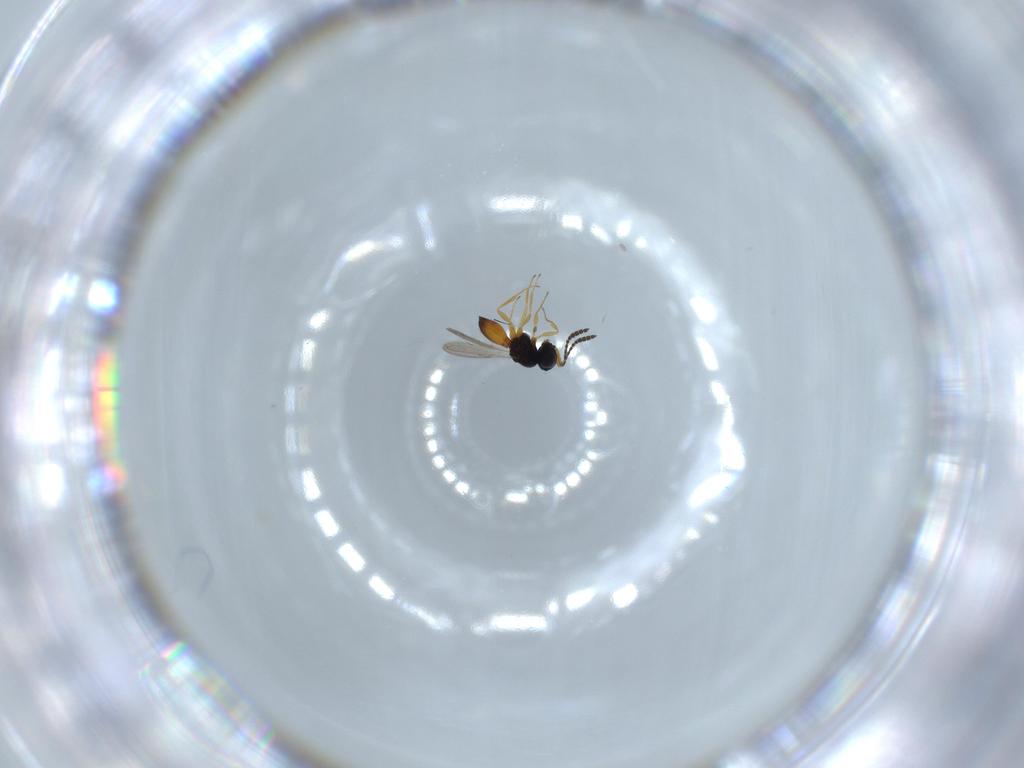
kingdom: Animalia
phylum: Arthropoda
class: Insecta
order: Hymenoptera
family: Scelionidae
